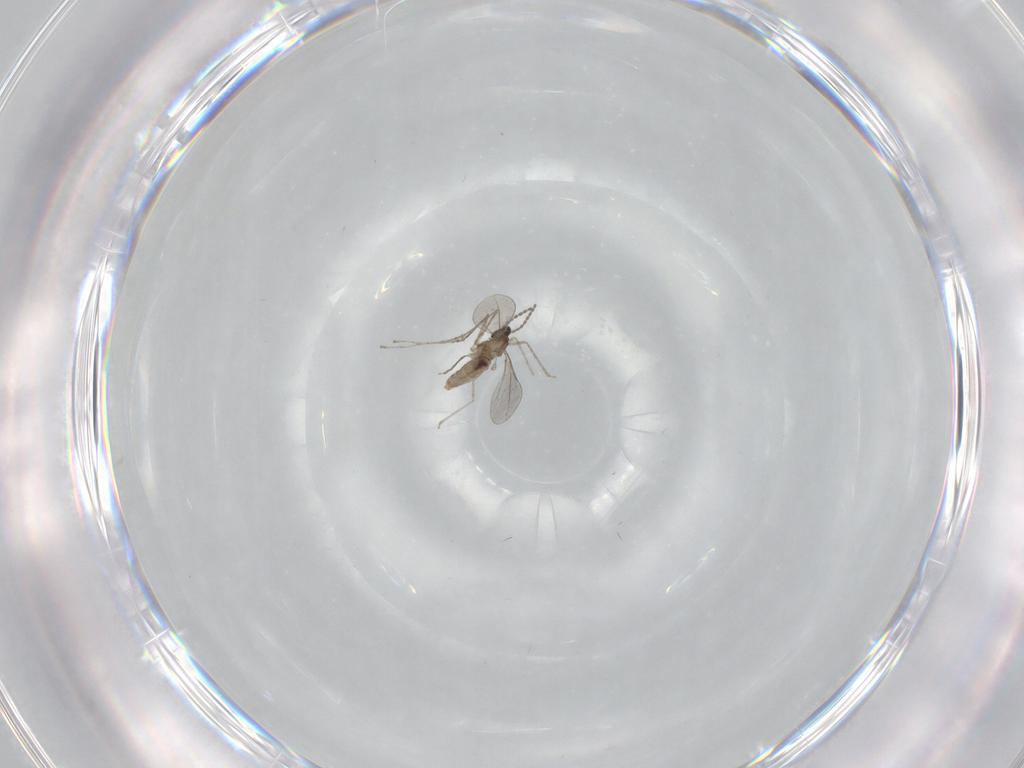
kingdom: Animalia
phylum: Arthropoda
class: Insecta
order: Diptera
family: Cecidomyiidae
